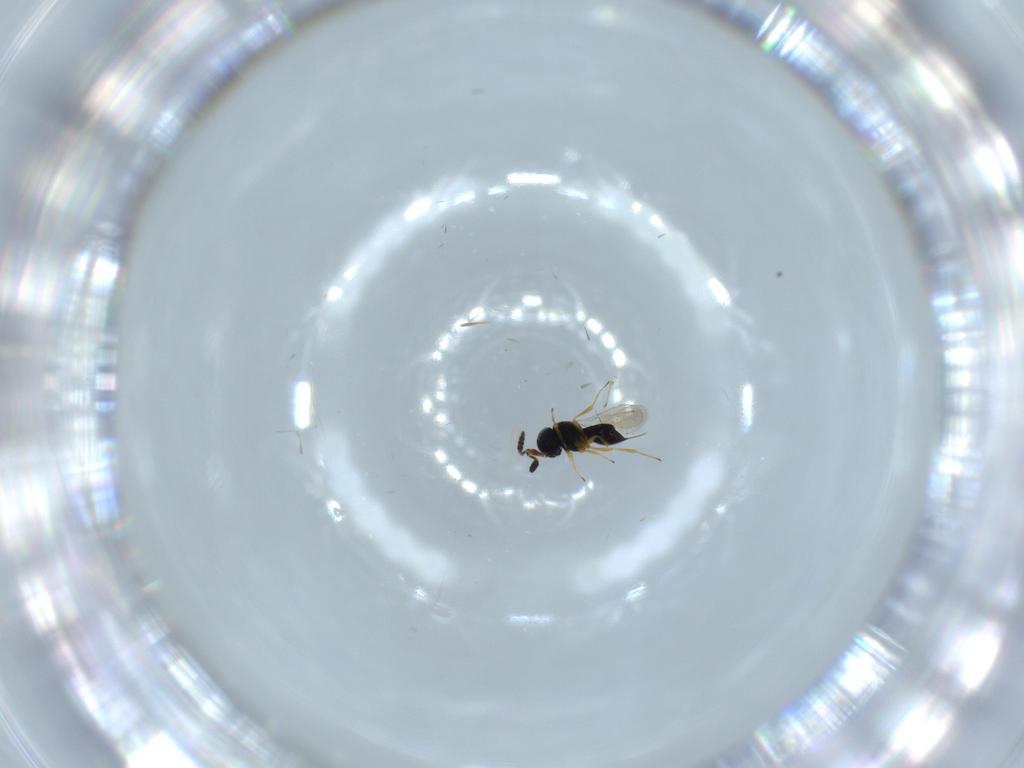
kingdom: Animalia
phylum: Arthropoda
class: Insecta
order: Hymenoptera
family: Scelionidae
